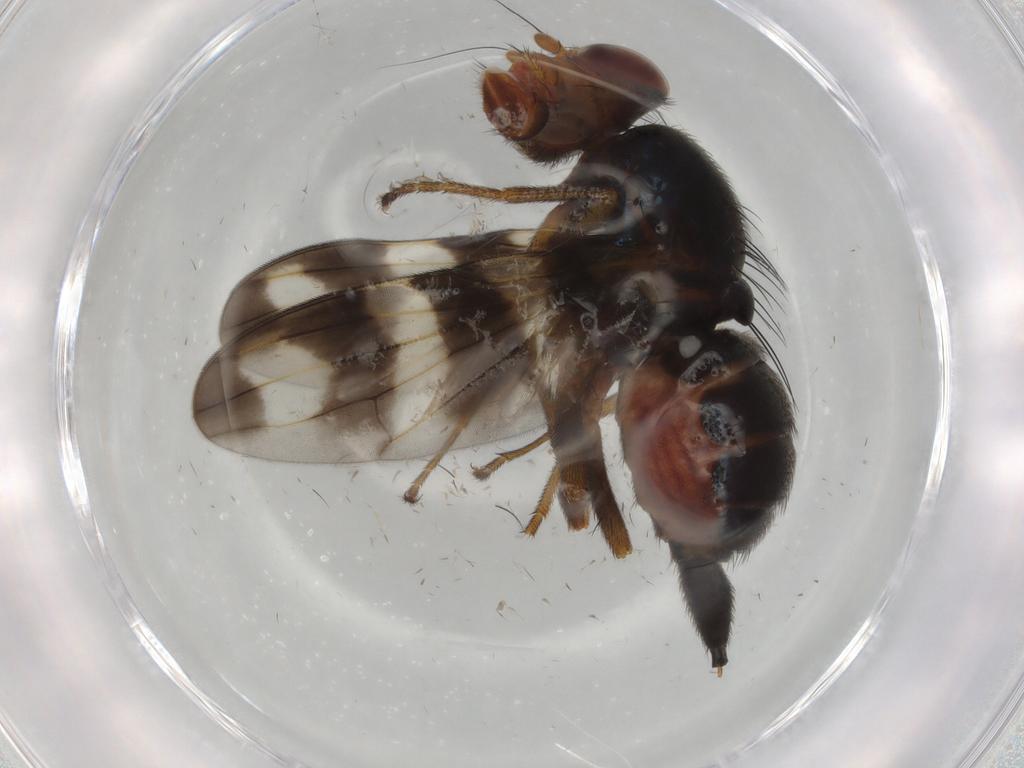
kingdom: Animalia
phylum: Arthropoda
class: Insecta
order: Diptera
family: Ulidiidae
